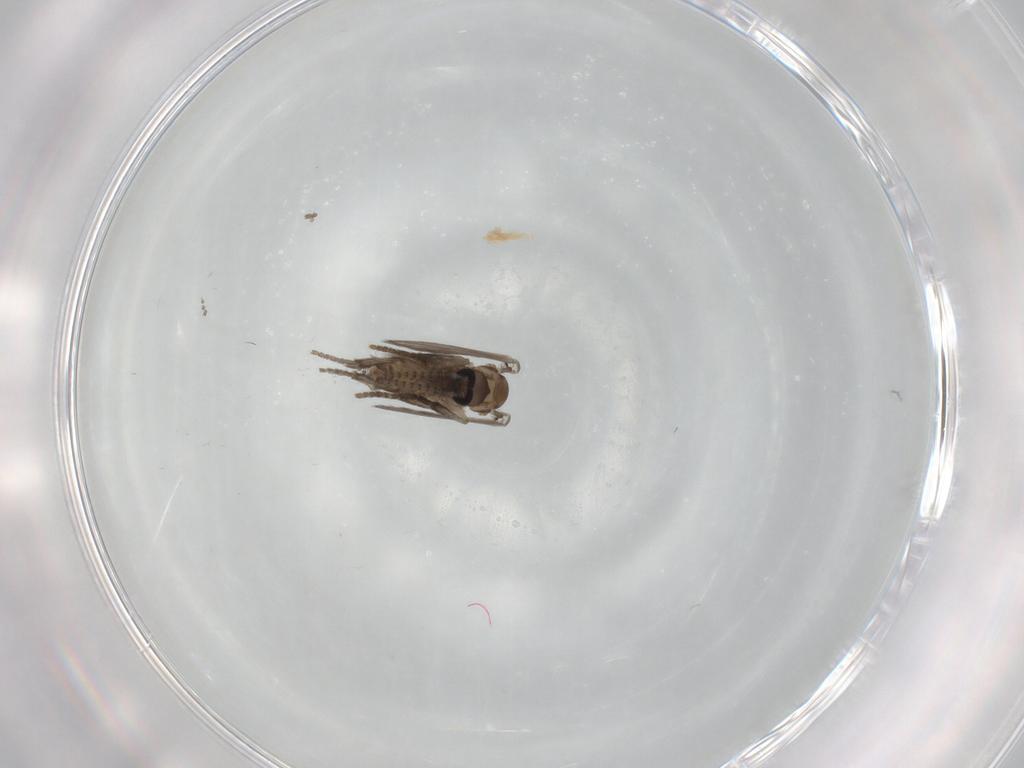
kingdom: Animalia
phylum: Arthropoda
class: Insecta
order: Diptera
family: Psychodidae
